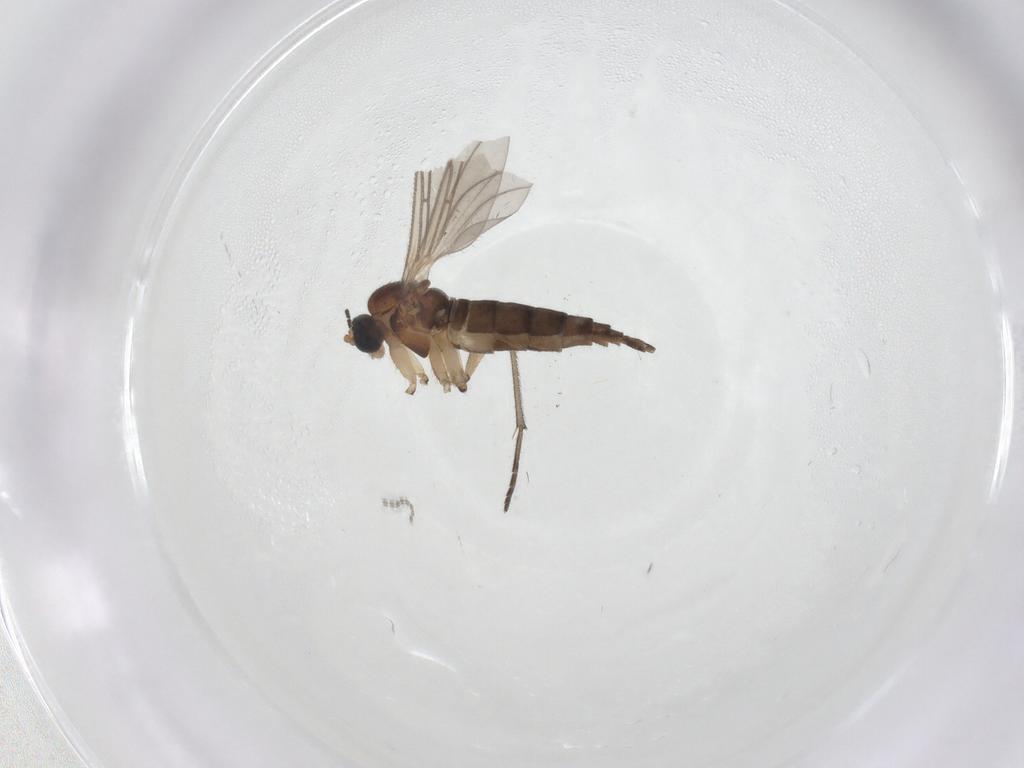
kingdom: Animalia
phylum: Arthropoda
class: Insecta
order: Diptera
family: Sciaridae
